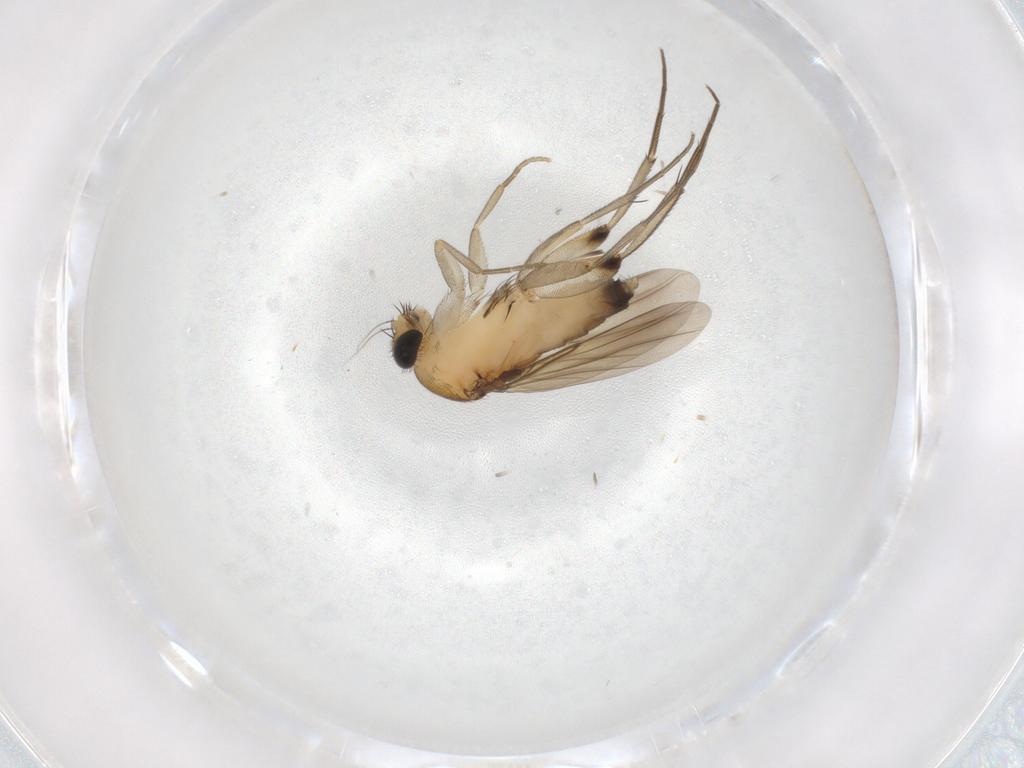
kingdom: Animalia
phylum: Arthropoda
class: Insecta
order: Diptera
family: Phoridae
